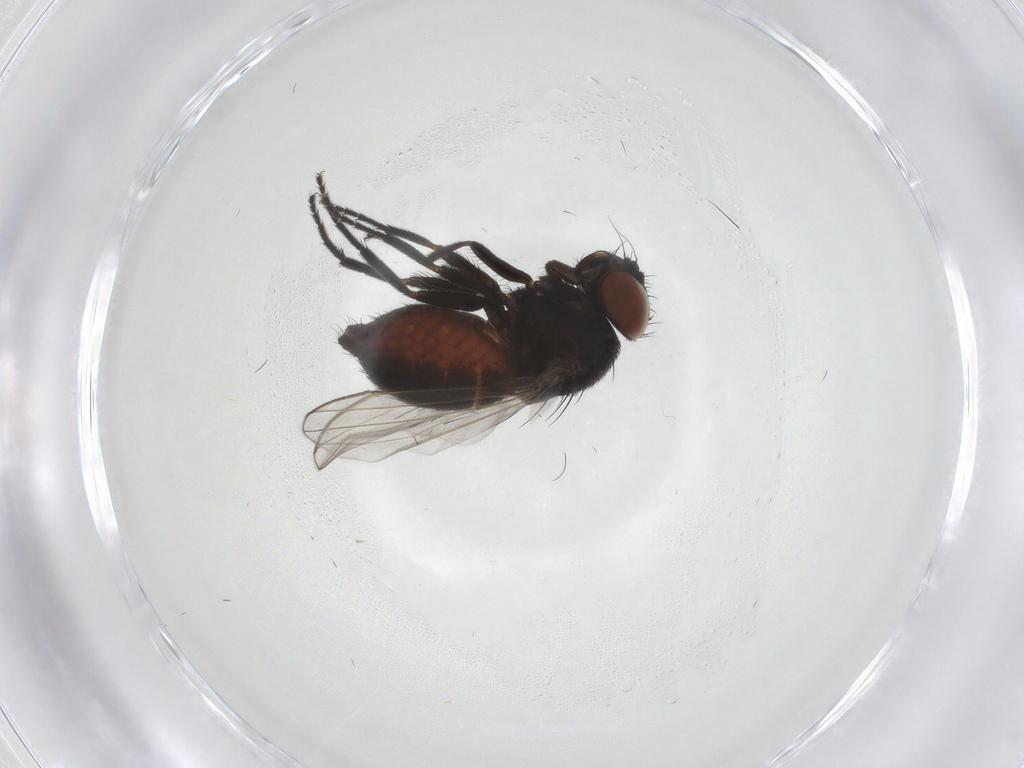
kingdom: Animalia
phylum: Arthropoda
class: Insecta
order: Diptera
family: Milichiidae
